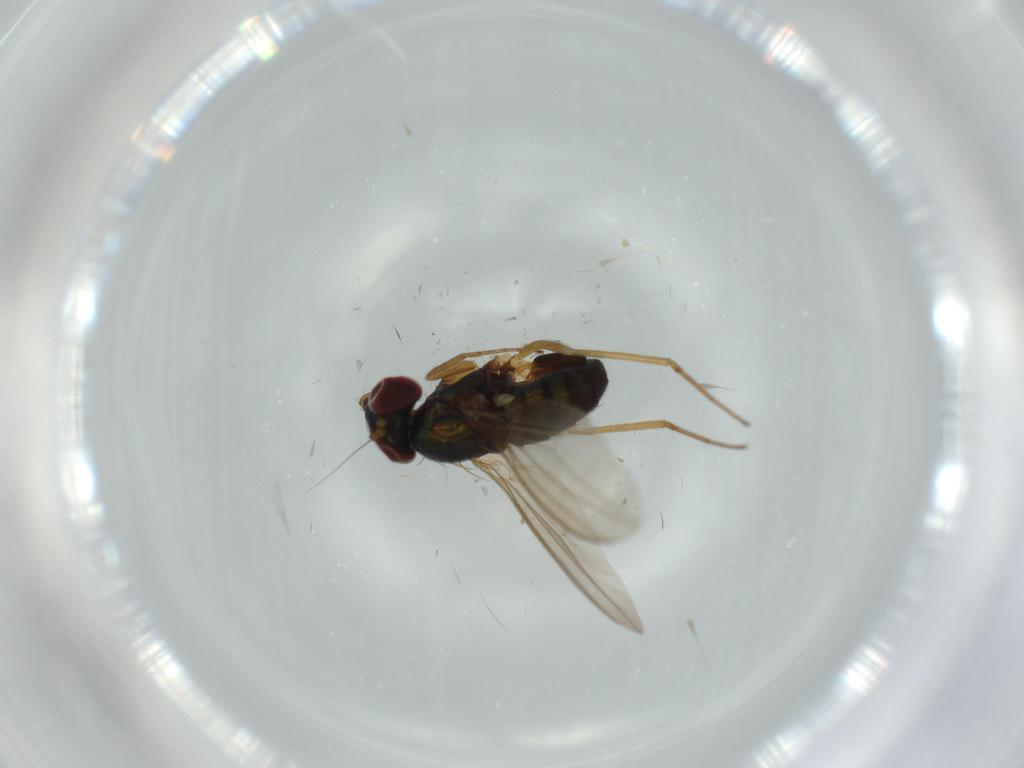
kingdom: Animalia
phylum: Arthropoda
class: Insecta
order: Diptera
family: Dolichopodidae
